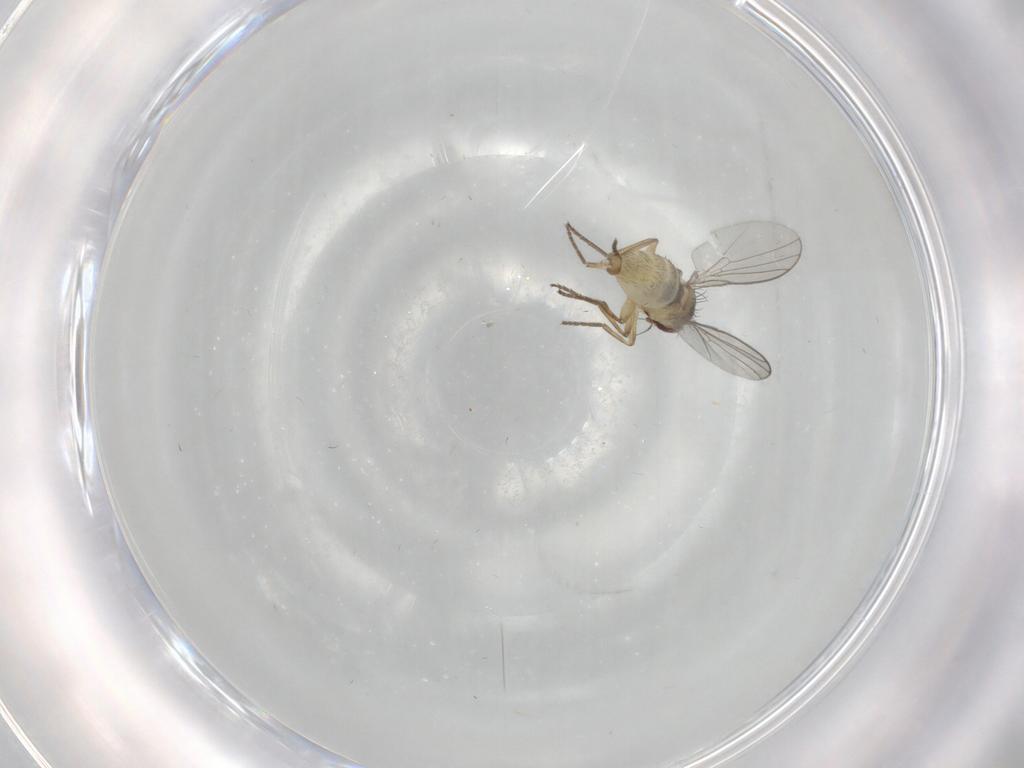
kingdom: Animalia
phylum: Arthropoda
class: Insecta
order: Diptera
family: Agromyzidae
